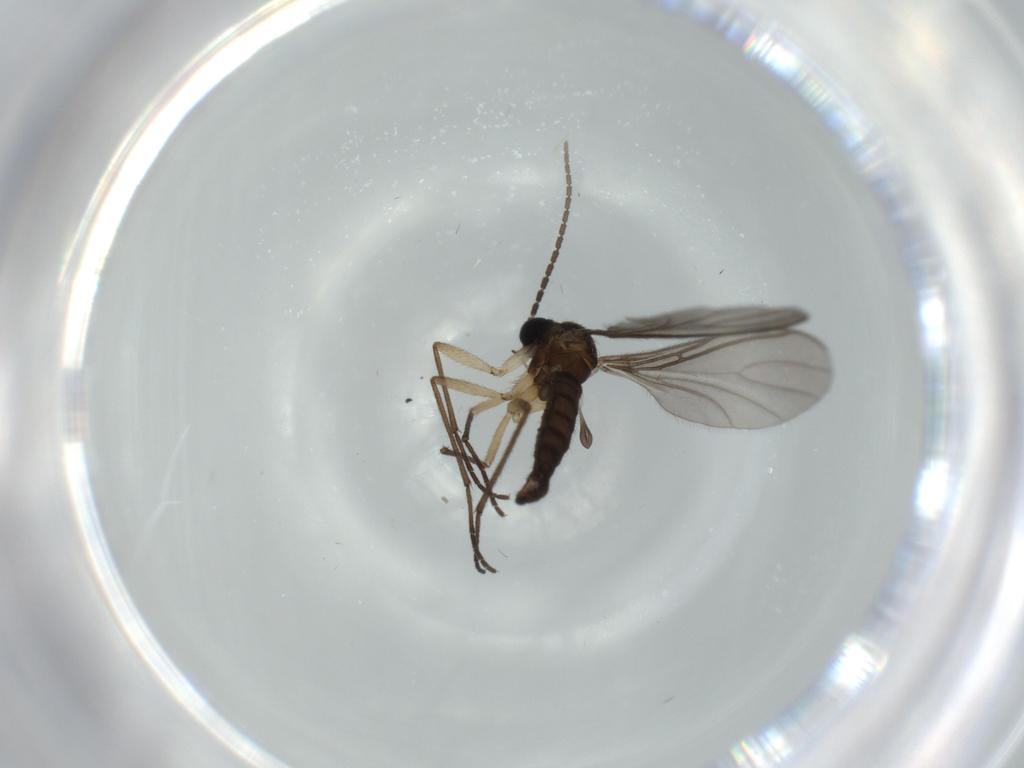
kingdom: Animalia
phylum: Arthropoda
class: Insecta
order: Diptera
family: Sciaridae
